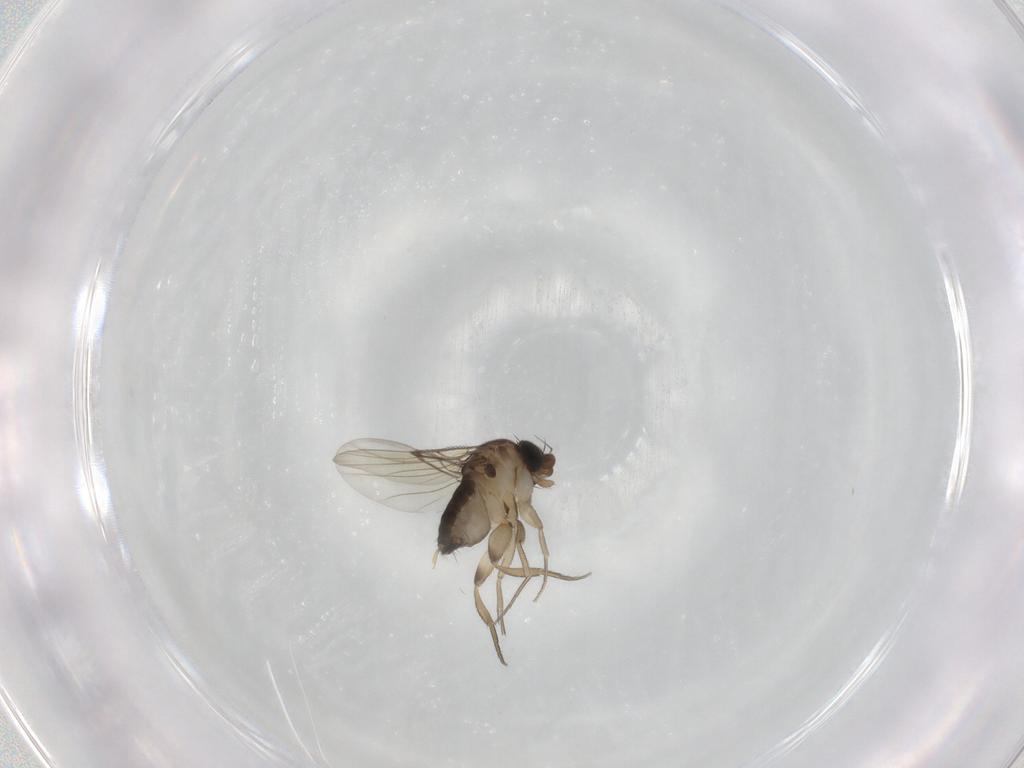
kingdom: Animalia
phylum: Arthropoda
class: Insecta
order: Diptera
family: Phoridae
